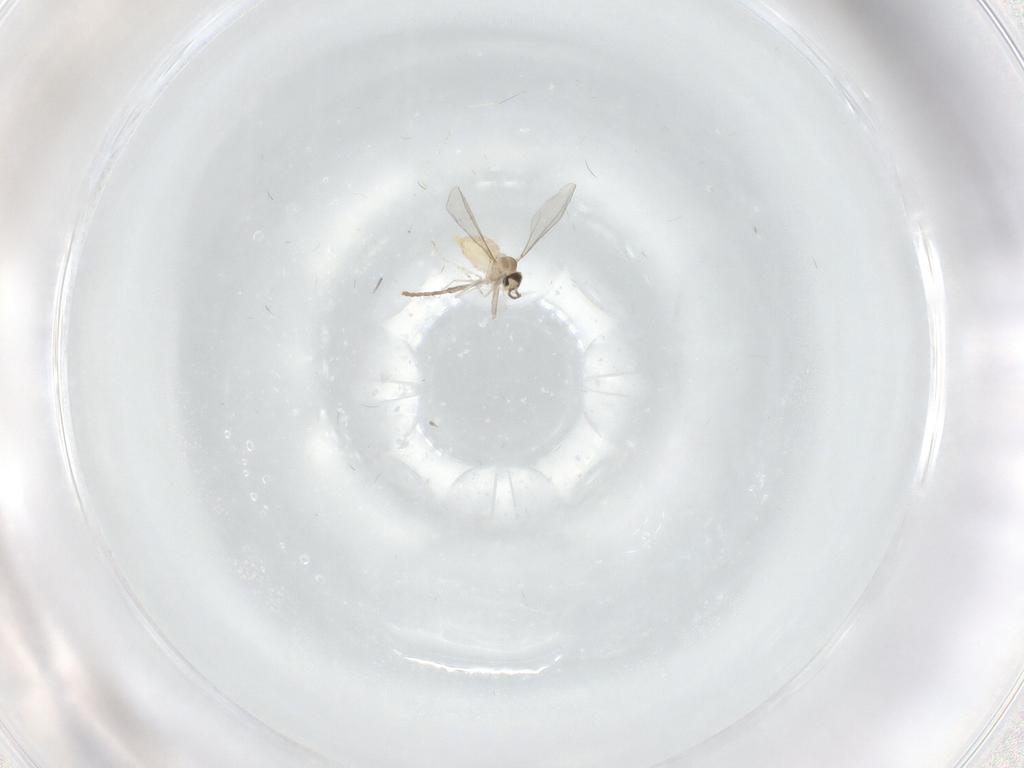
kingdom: Animalia
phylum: Arthropoda
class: Insecta
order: Diptera
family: Cecidomyiidae
